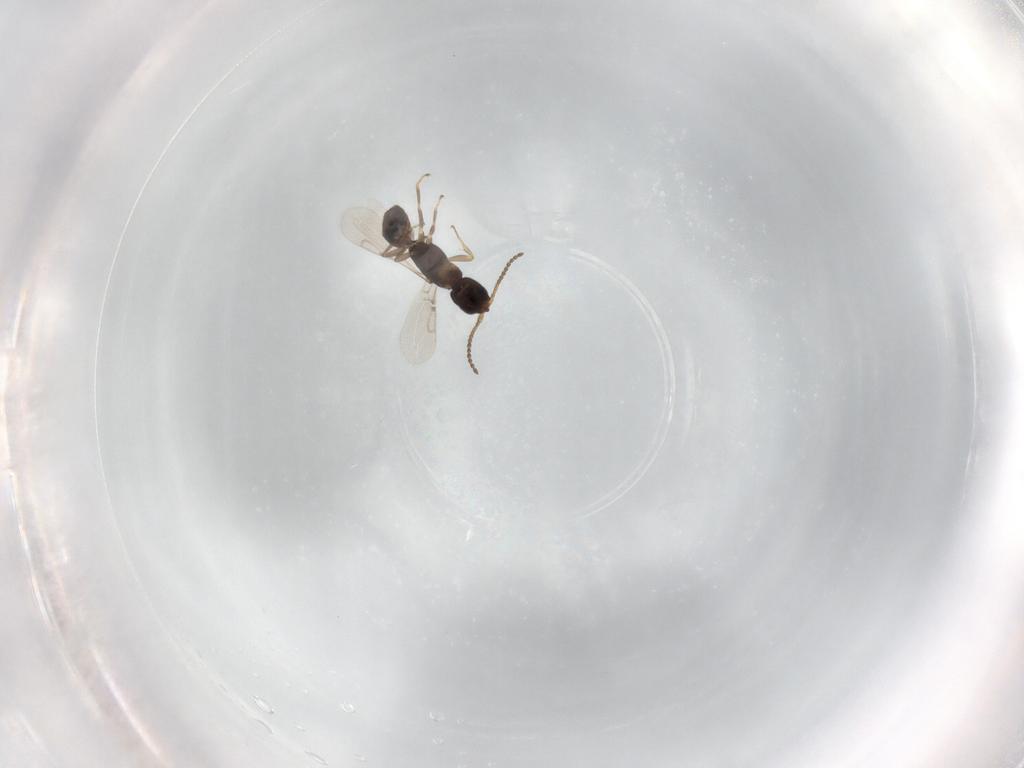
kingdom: Animalia
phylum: Arthropoda
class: Insecta
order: Hymenoptera
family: Bethylidae
